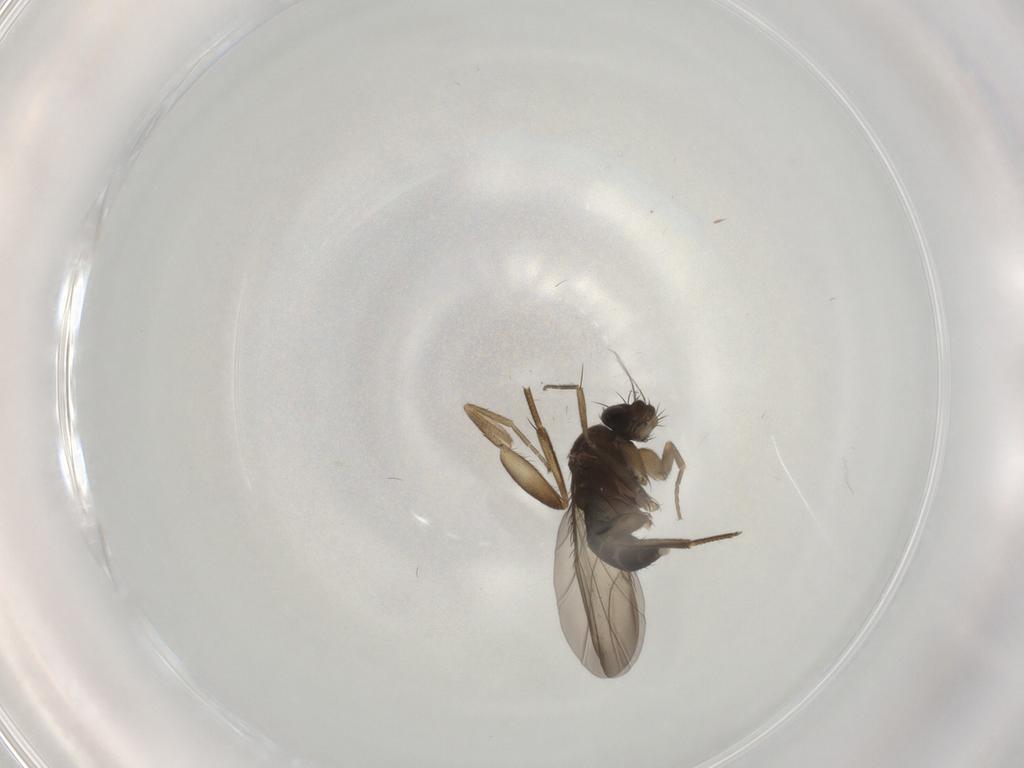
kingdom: Animalia
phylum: Arthropoda
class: Insecta
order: Diptera
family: Phoridae
